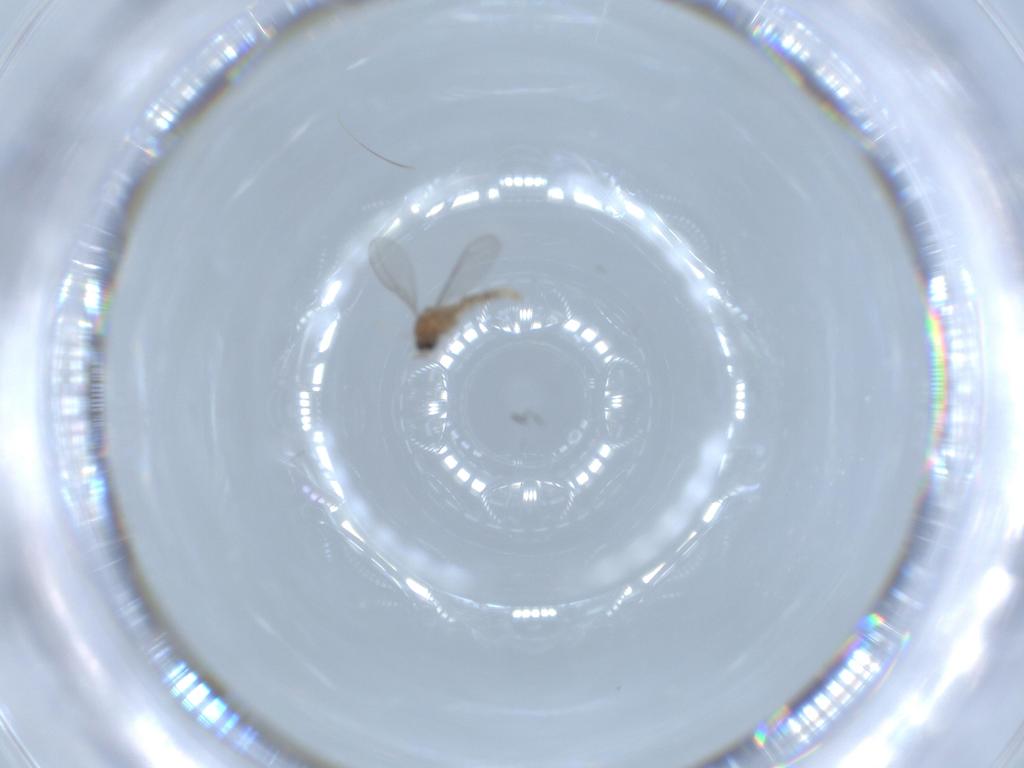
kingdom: Animalia
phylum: Arthropoda
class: Insecta
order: Diptera
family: Cecidomyiidae
